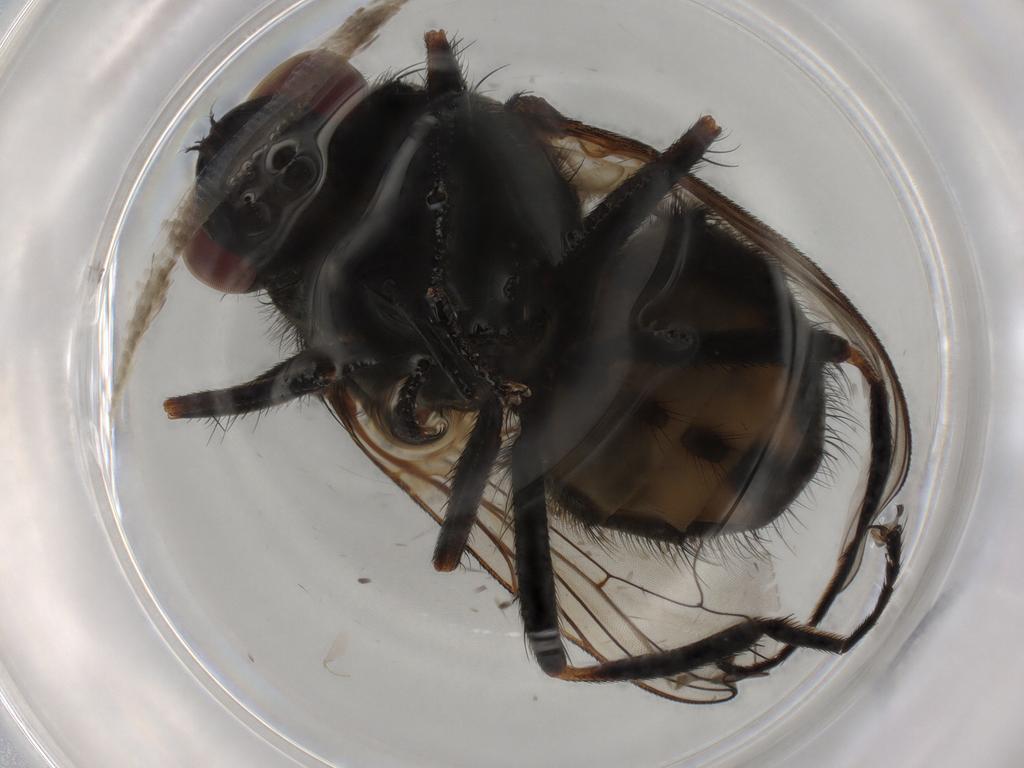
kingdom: Animalia
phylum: Arthropoda
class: Insecta
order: Diptera
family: Muscidae
